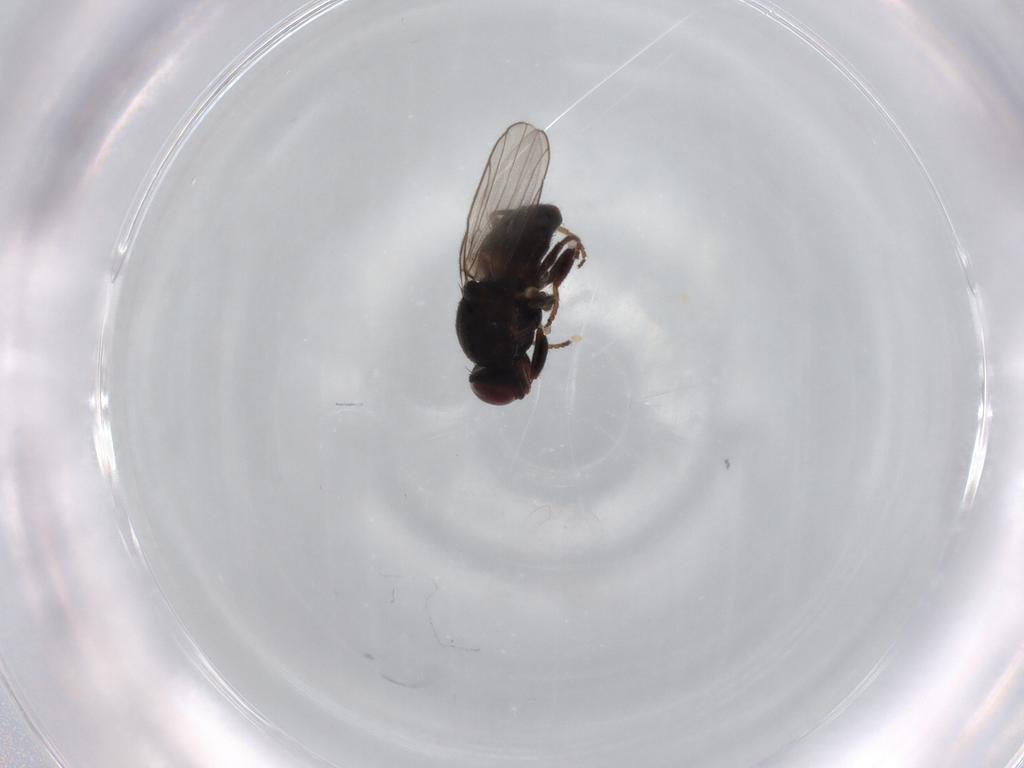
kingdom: Animalia
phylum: Arthropoda
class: Insecta
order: Diptera
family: Chloropidae
